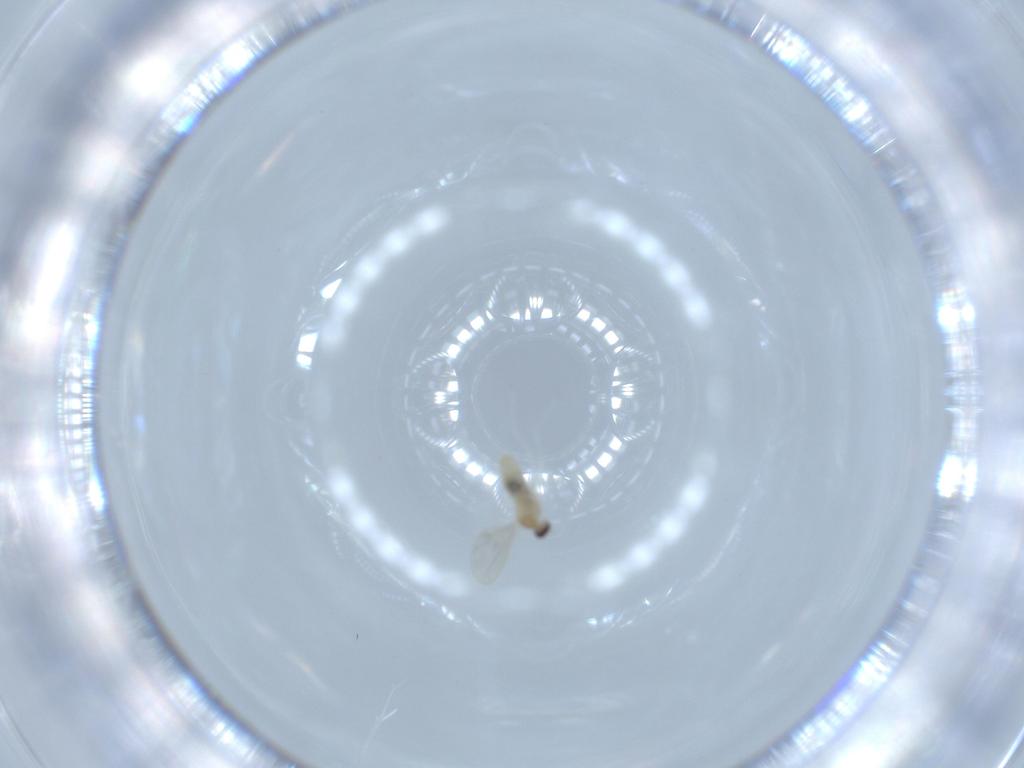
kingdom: Animalia
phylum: Arthropoda
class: Insecta
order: Diptera
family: Cecidomyiidae
